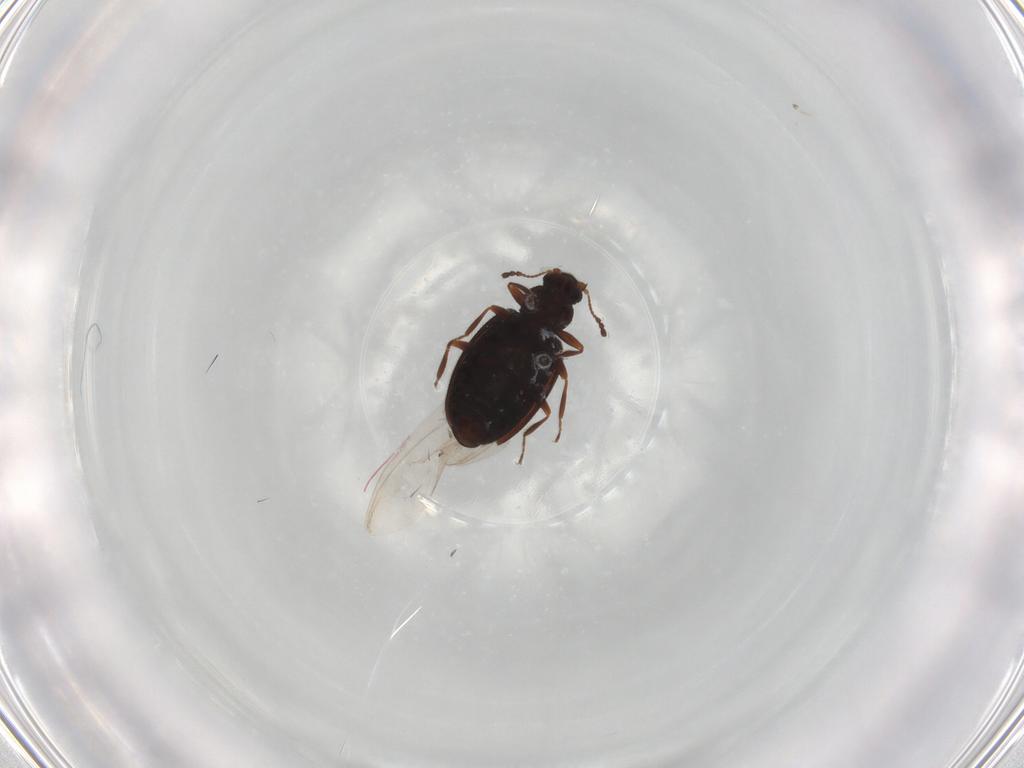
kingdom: Animalia
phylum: Arthropoda
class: Insecta
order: Coleoptera
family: Latridiidae
